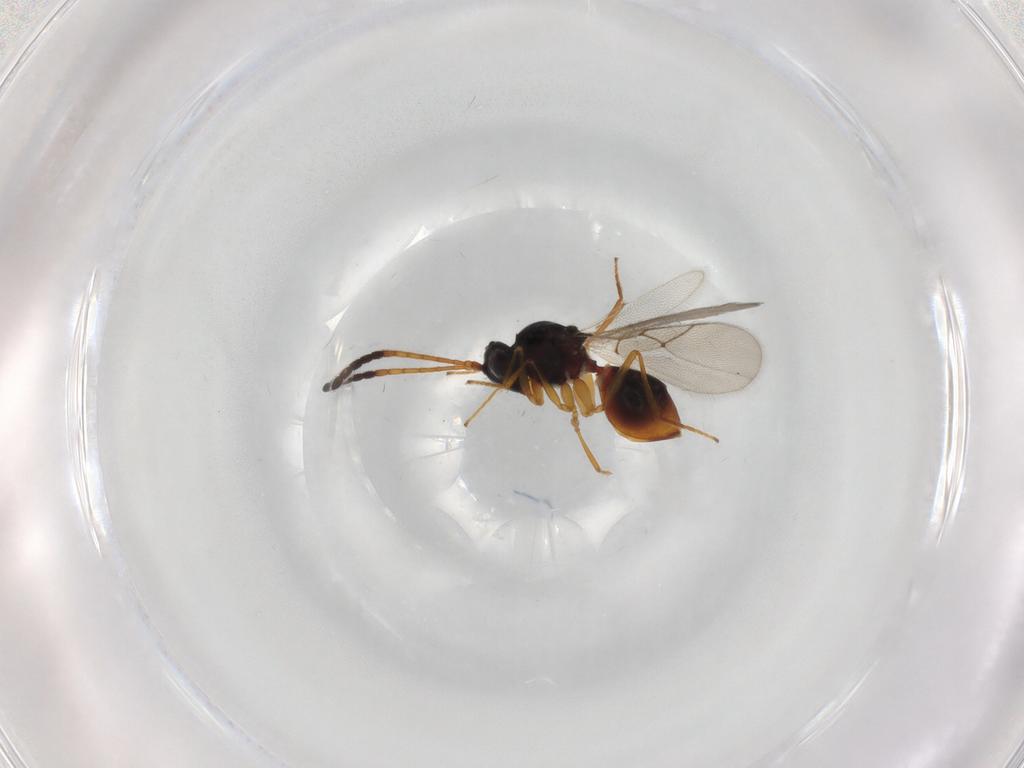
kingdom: Animalia
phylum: Arthropoda
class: Insecta
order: Hymenoptera
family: Figitidae
